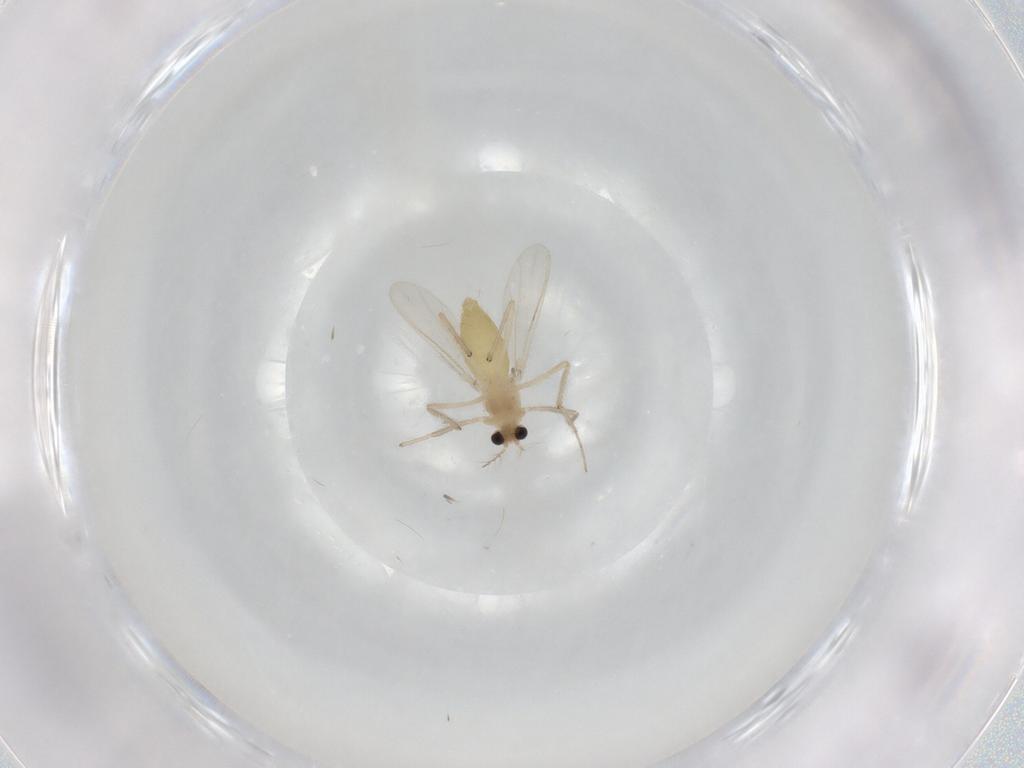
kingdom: Animalia
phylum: Arthropoda
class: Insecta
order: Diptera
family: Chironomidae
